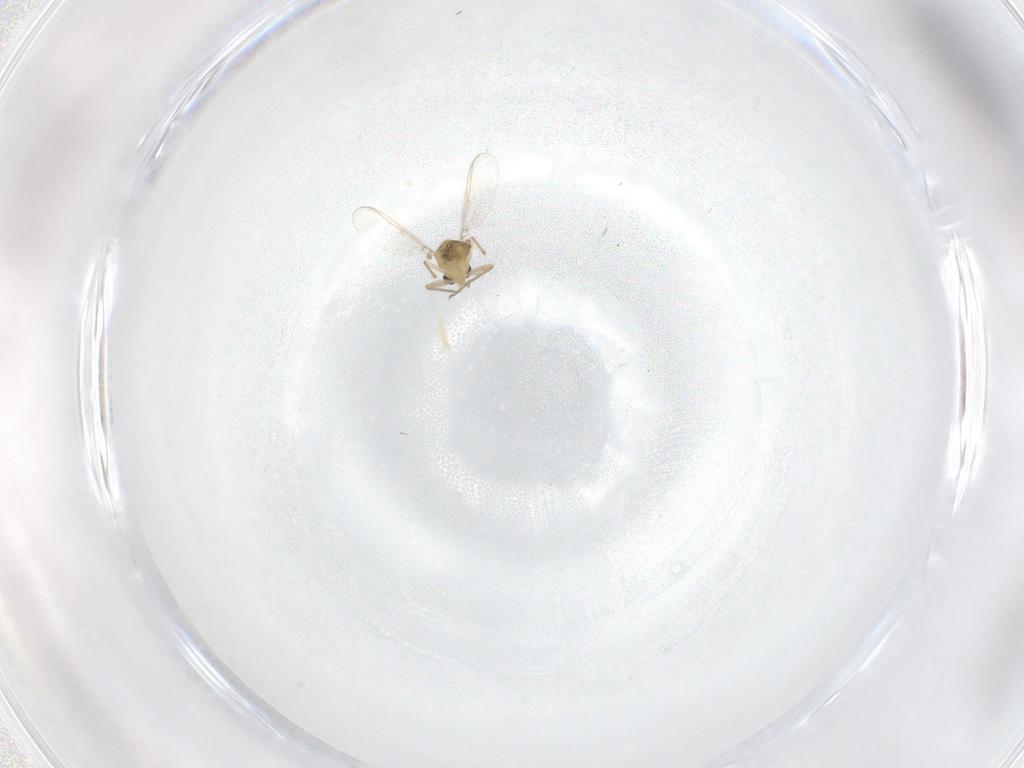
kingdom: Animalia
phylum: Arthropoda
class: Insecta
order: Diptera
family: Chironomidae
